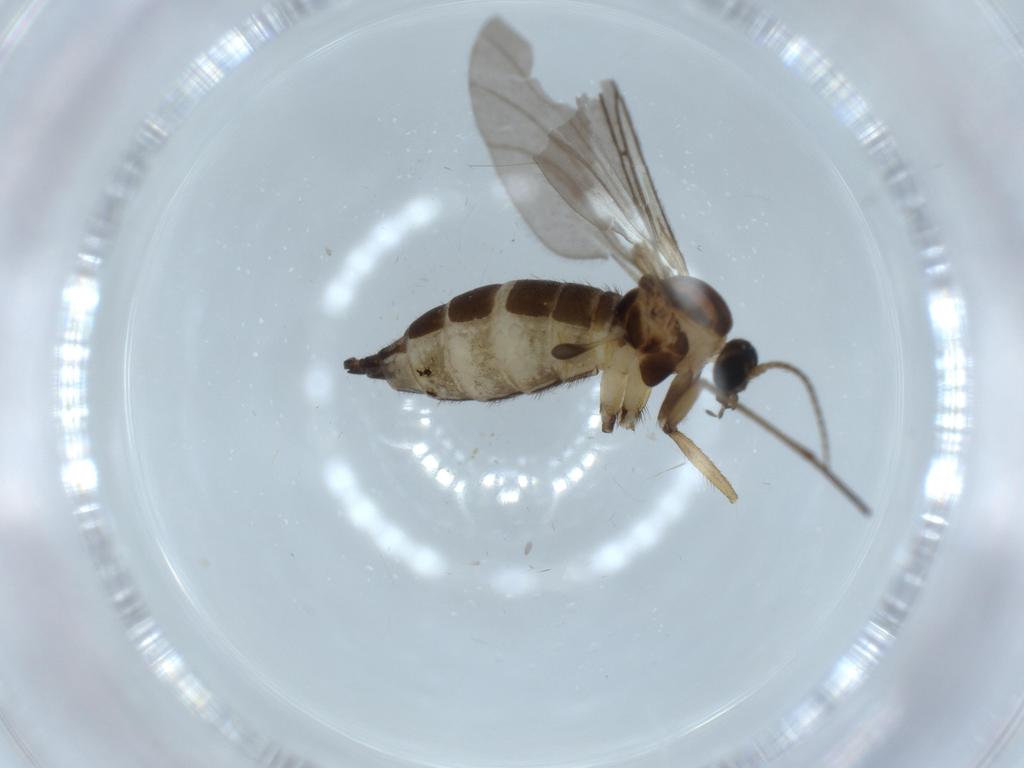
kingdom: Animalia
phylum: Arthropoda
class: Insecta
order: Diptera
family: Sciaridae
